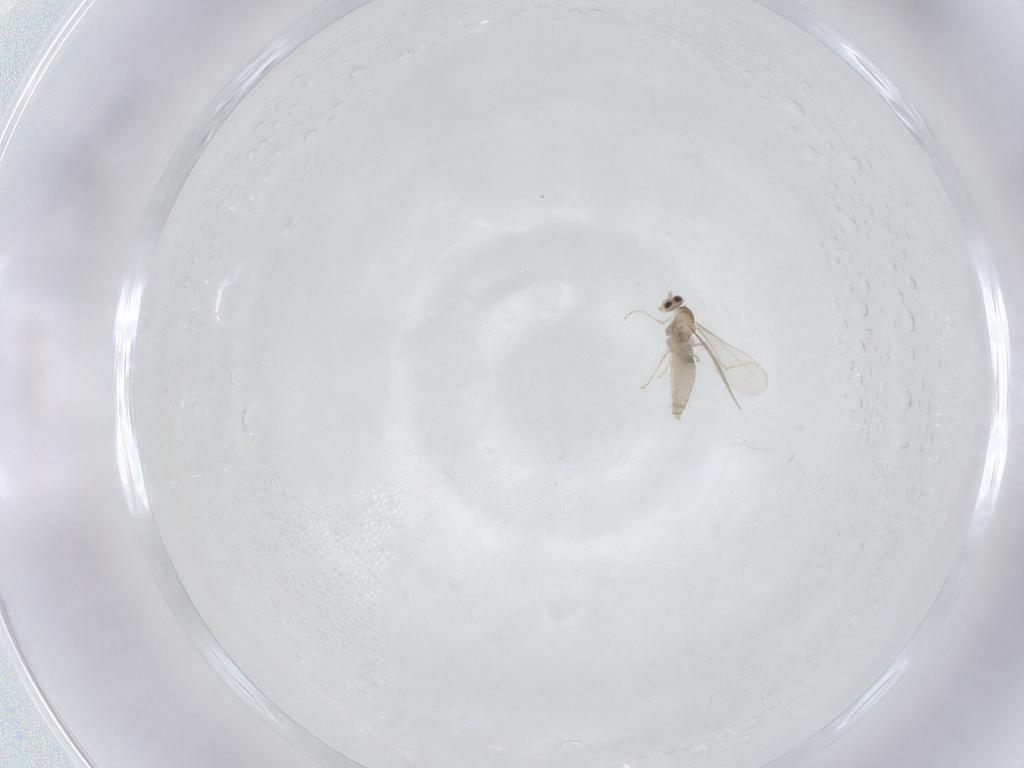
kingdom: Animalia
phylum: Arthropoda
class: Insecta
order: Diptera
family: Cecidomyiidae
